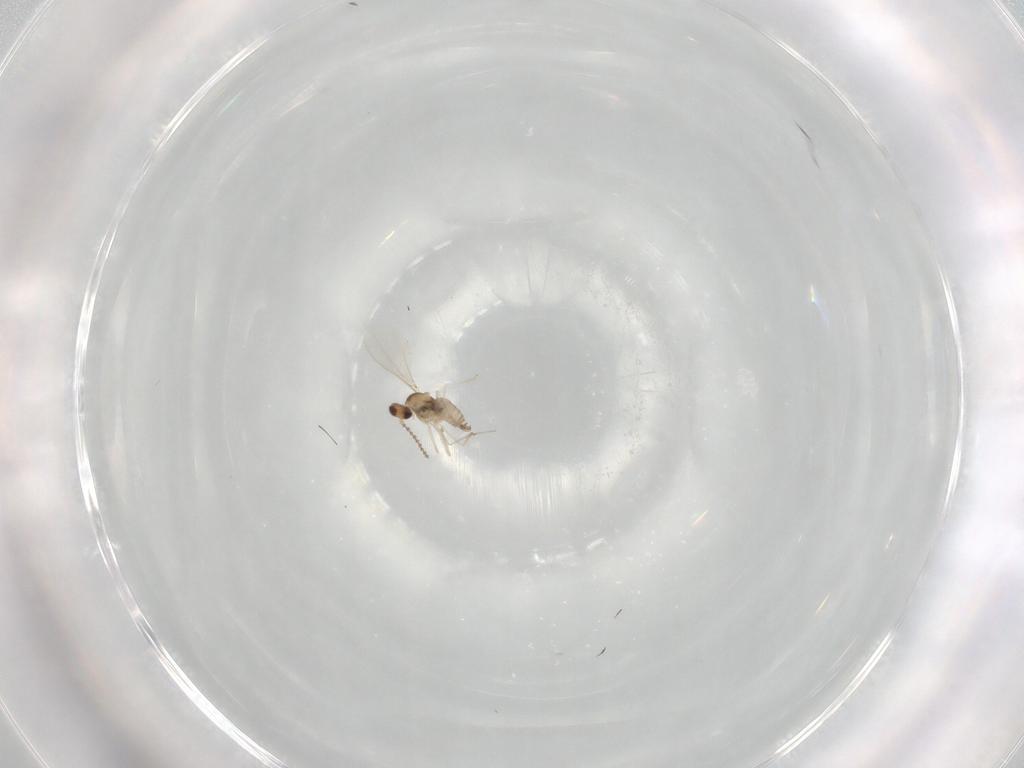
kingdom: Animalia
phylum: Arthropoda
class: Insecta
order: Diptera
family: Cecidomyiidae
